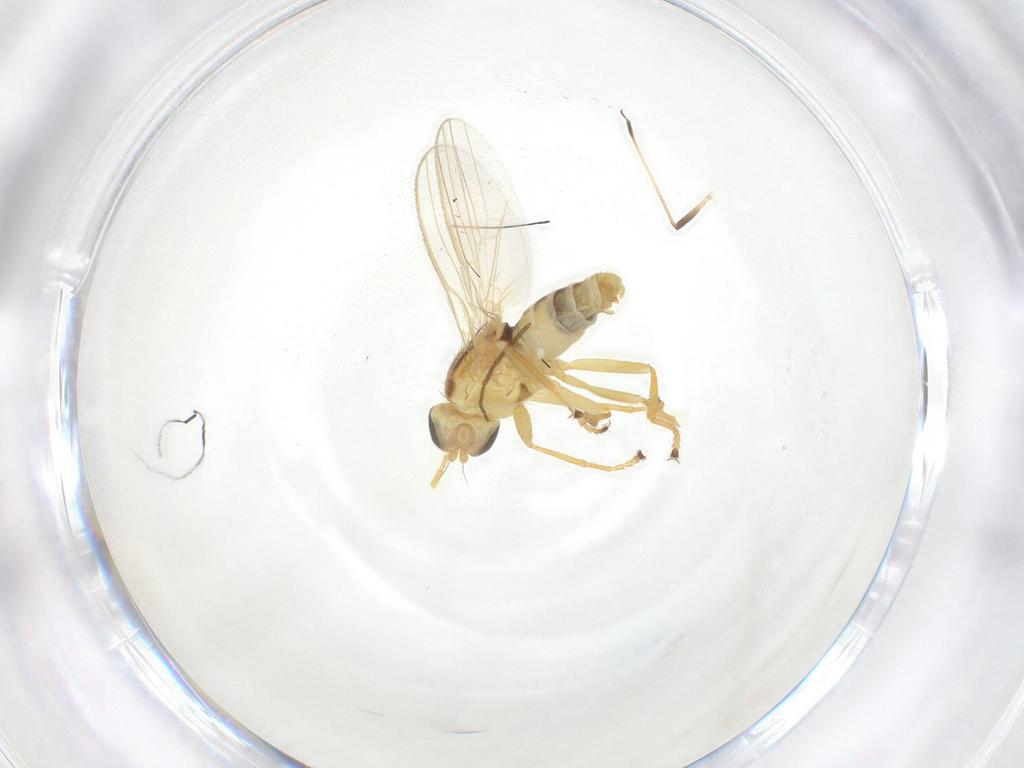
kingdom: Animalia
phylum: Arthropoda
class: Insecta
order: Diptera
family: Chyromyidae
